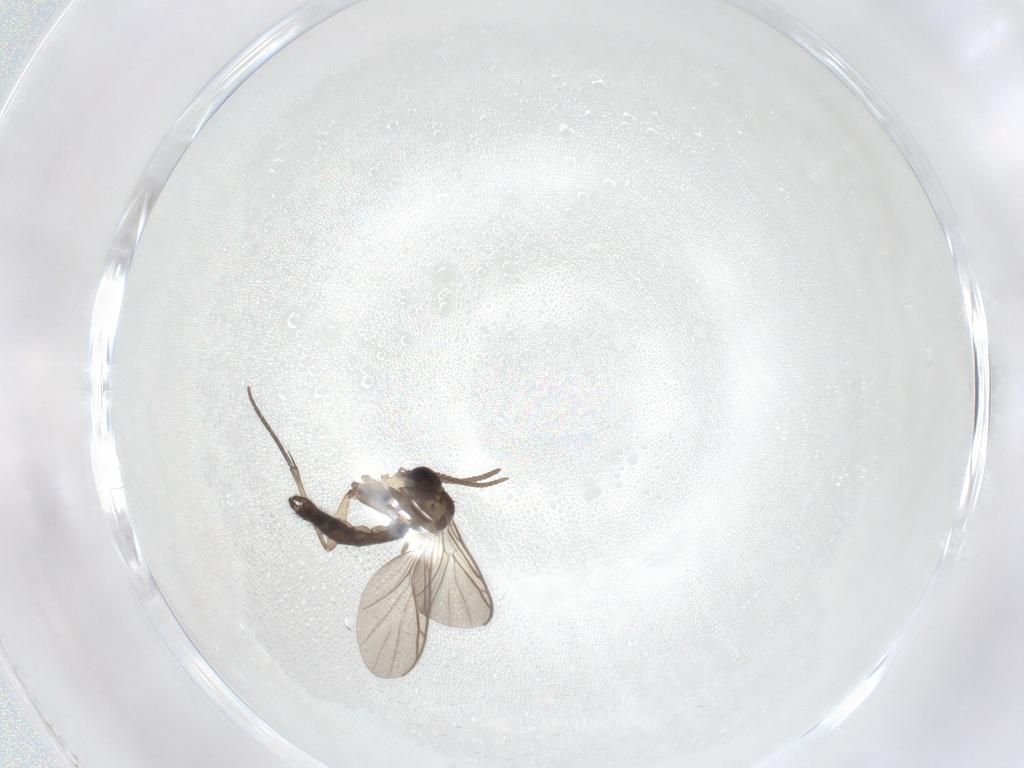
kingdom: Animalia
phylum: Arthropoda
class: Insecta
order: Diptera
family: Keroplatidae
